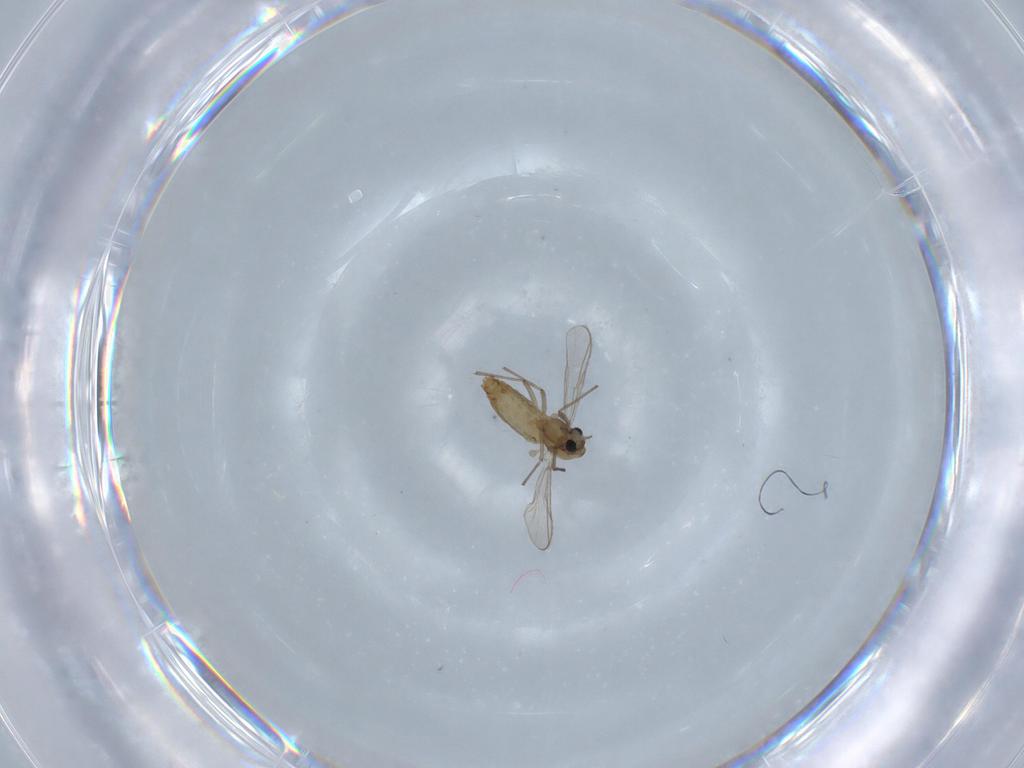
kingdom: Animalia
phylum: Arthropoda
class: Insecta
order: Diptera
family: Chironomidae
